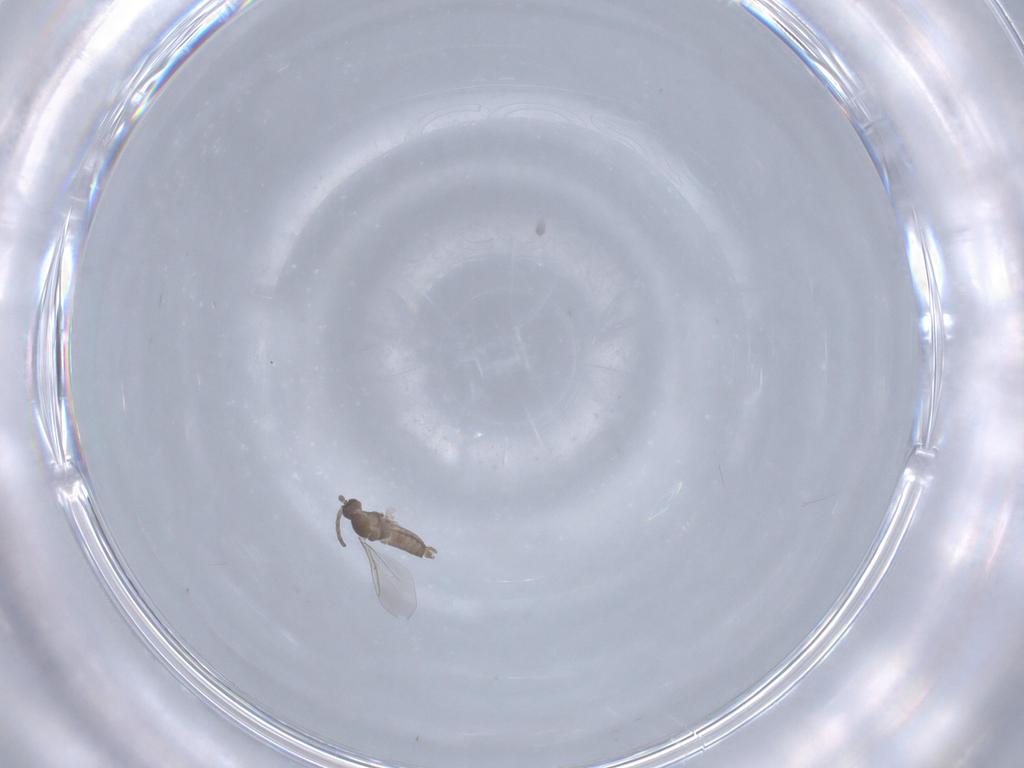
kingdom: Animalia
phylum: Arthropoda
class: Insecta
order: Diptera
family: Cecidomyiidae
